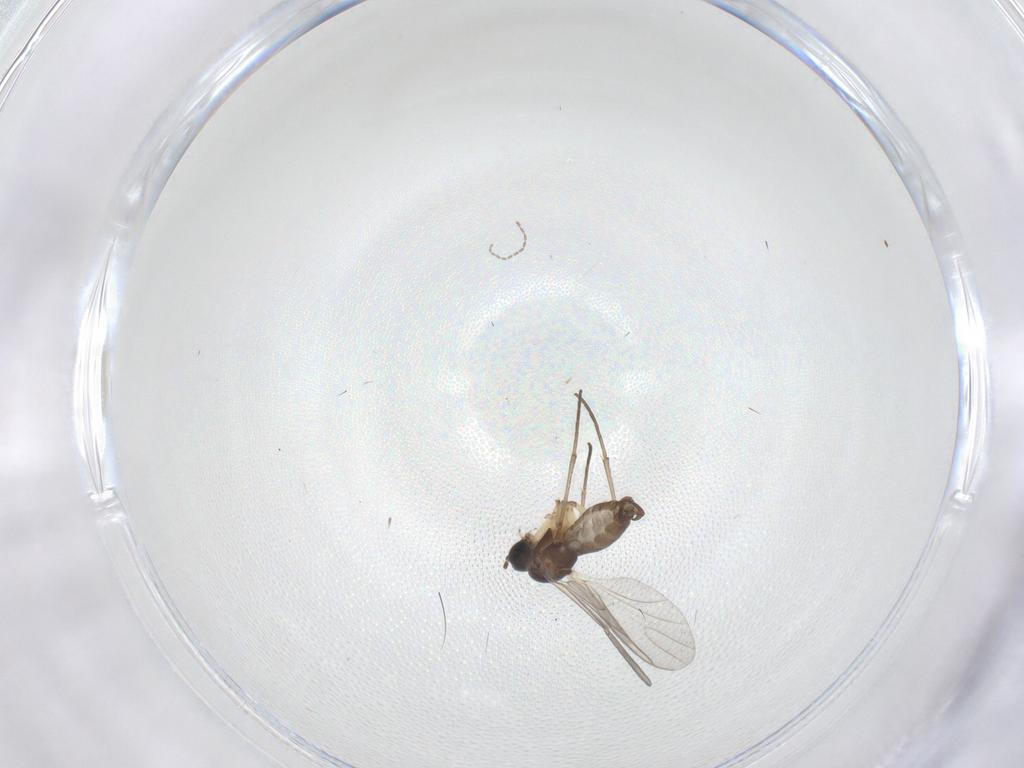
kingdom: Animalia
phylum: Arthropoda
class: Insecta
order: Diptera
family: Sciaridae
